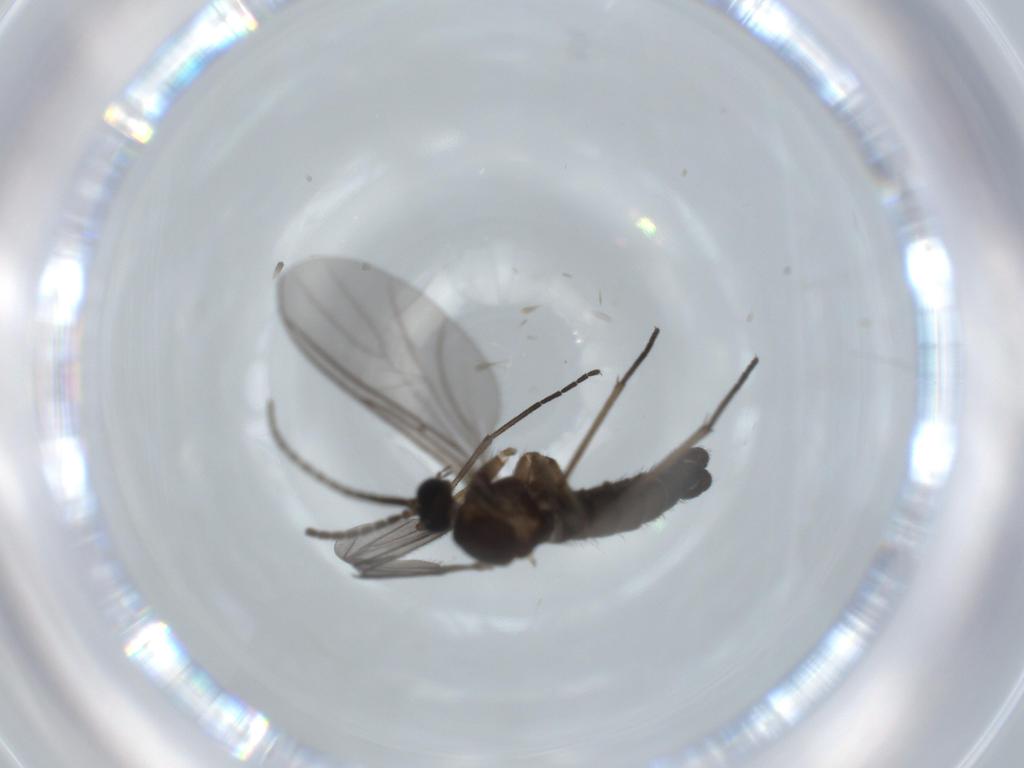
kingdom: Animalia
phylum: Arthropoda
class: Insecta
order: Diptera
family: Sciaridae
